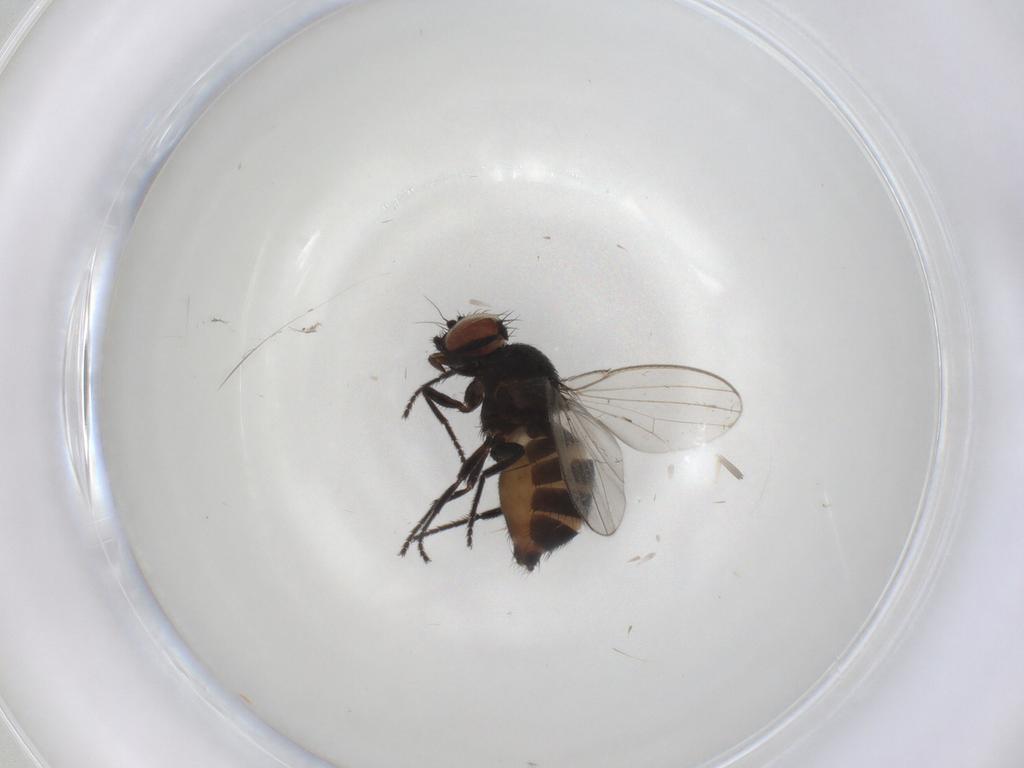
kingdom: Animalia
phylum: Arthropoda
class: Insecta
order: Diptera
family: Milichiidae
